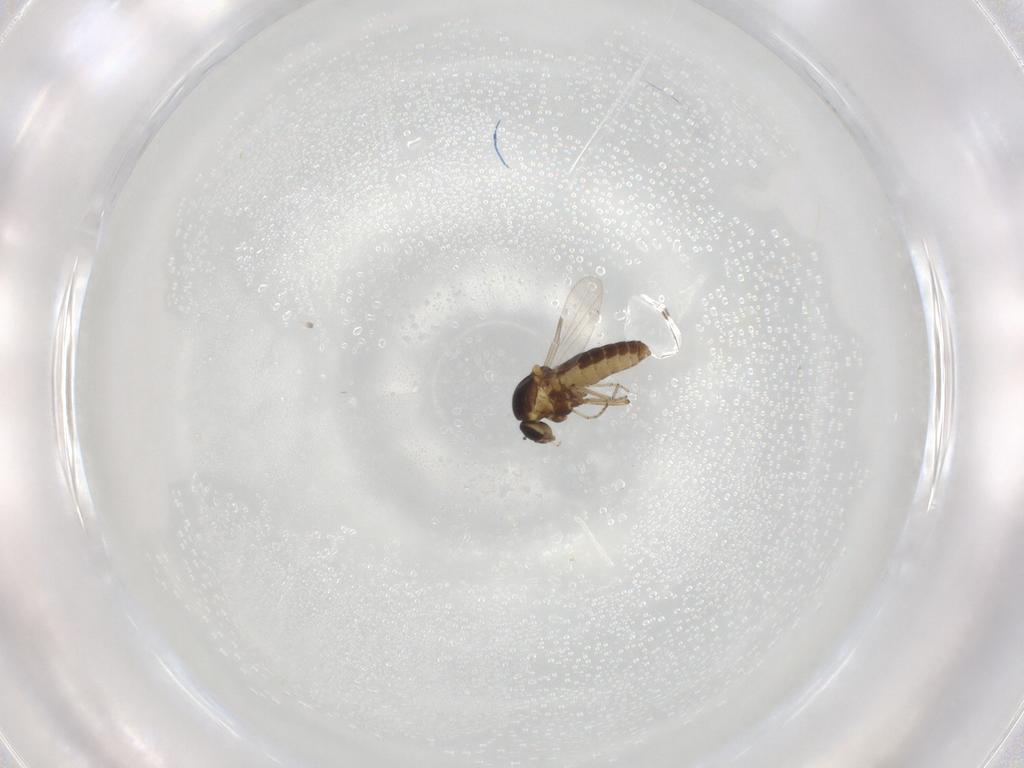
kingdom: Animalia
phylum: Arthropoda
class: Insecta
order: Diptera
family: Ceratopogonidae
